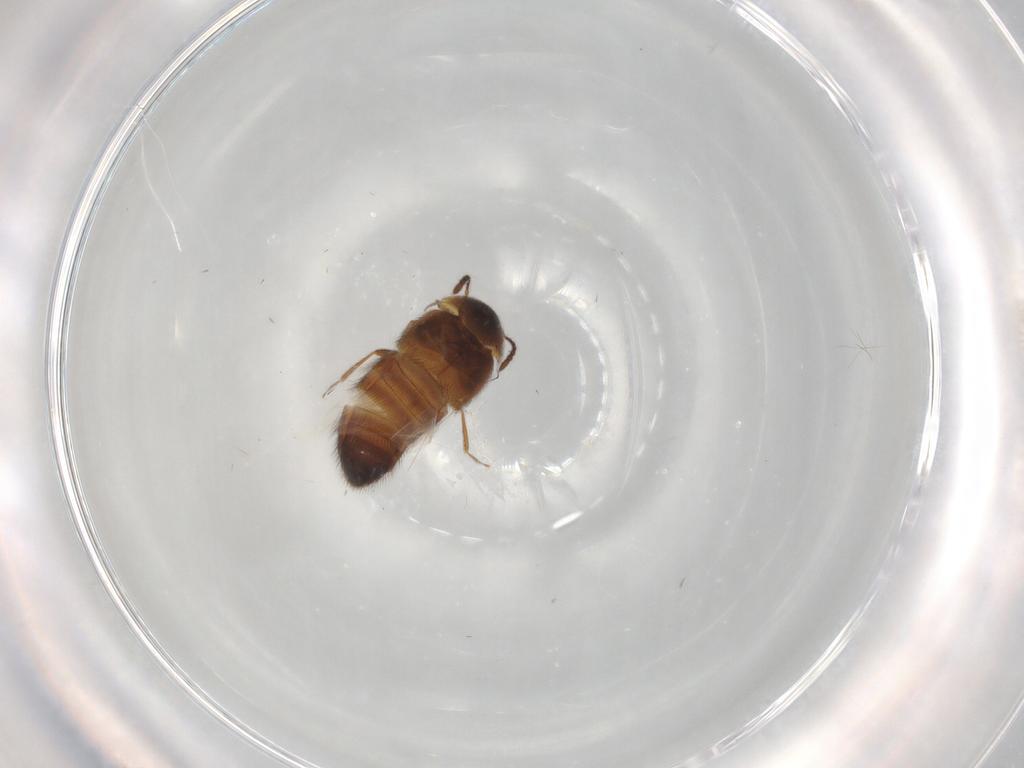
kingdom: Animalia
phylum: Arthropoda
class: Insecta
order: Coleoptera
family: Staphylinidae
